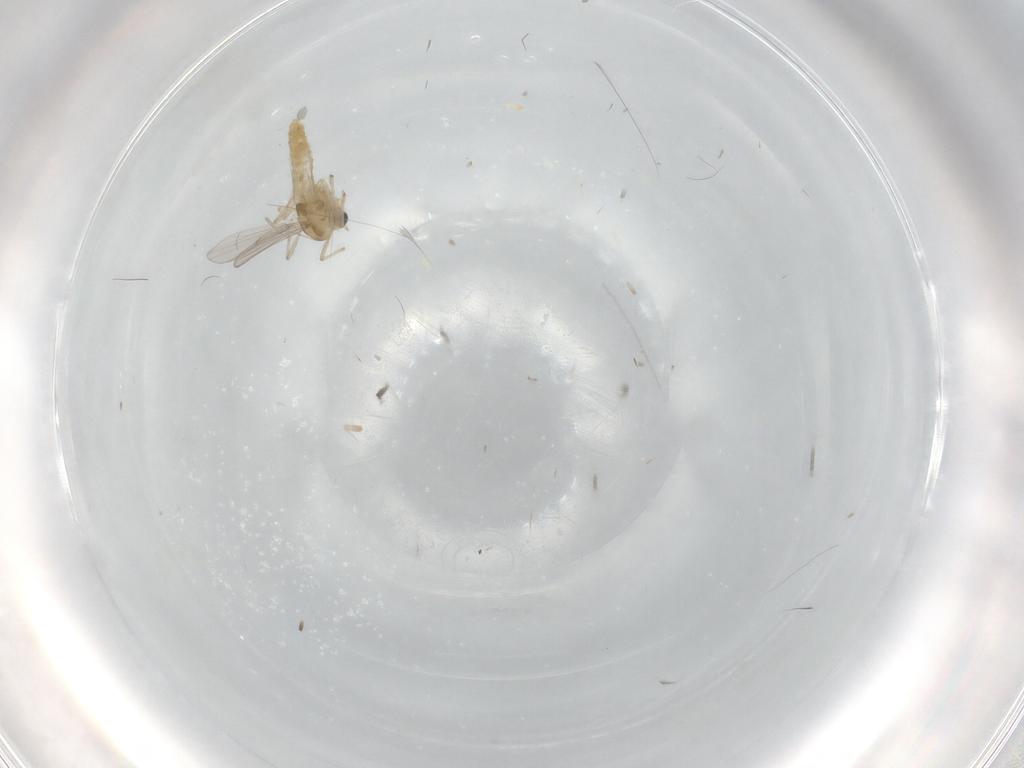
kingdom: Animalia
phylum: Arthropoda
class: Insecta
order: Diptera
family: Chironomidae
